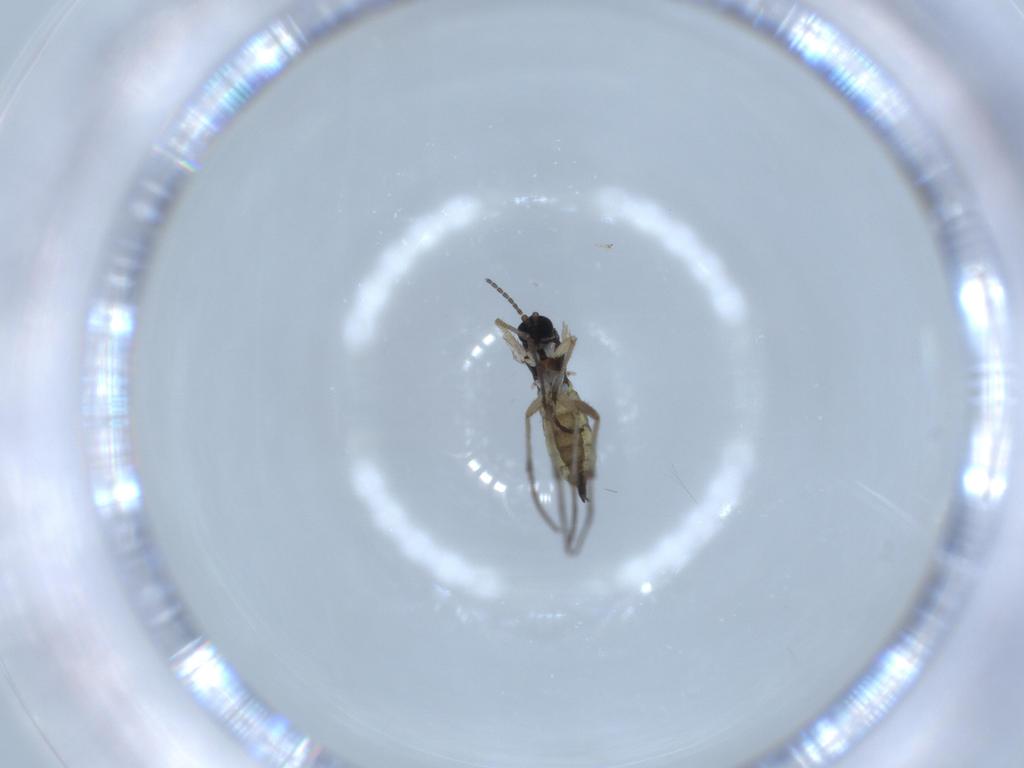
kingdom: Animalia
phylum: Arthropoda
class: Insecta
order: Diptera
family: Sciaridae
